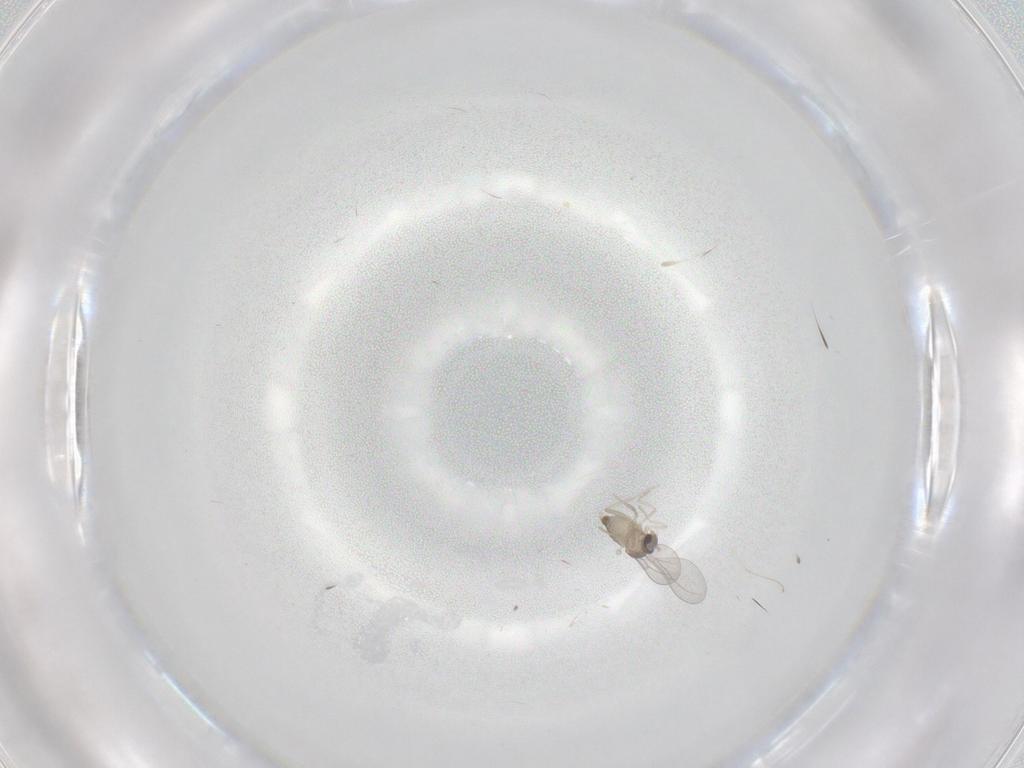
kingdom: Animalia
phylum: Arthropoda
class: Insecta
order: Diptera
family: Cecidomyiidae
